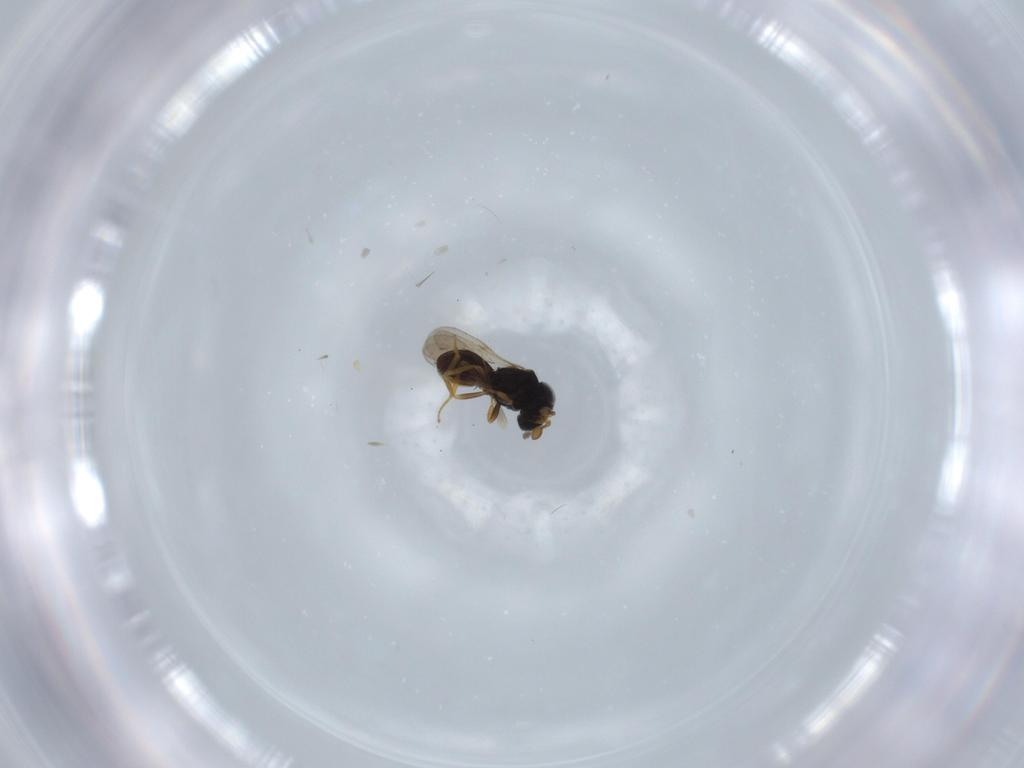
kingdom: Animalia
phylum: Arthropoda
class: Insecta
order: Hymenoptera
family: Scelionidae
